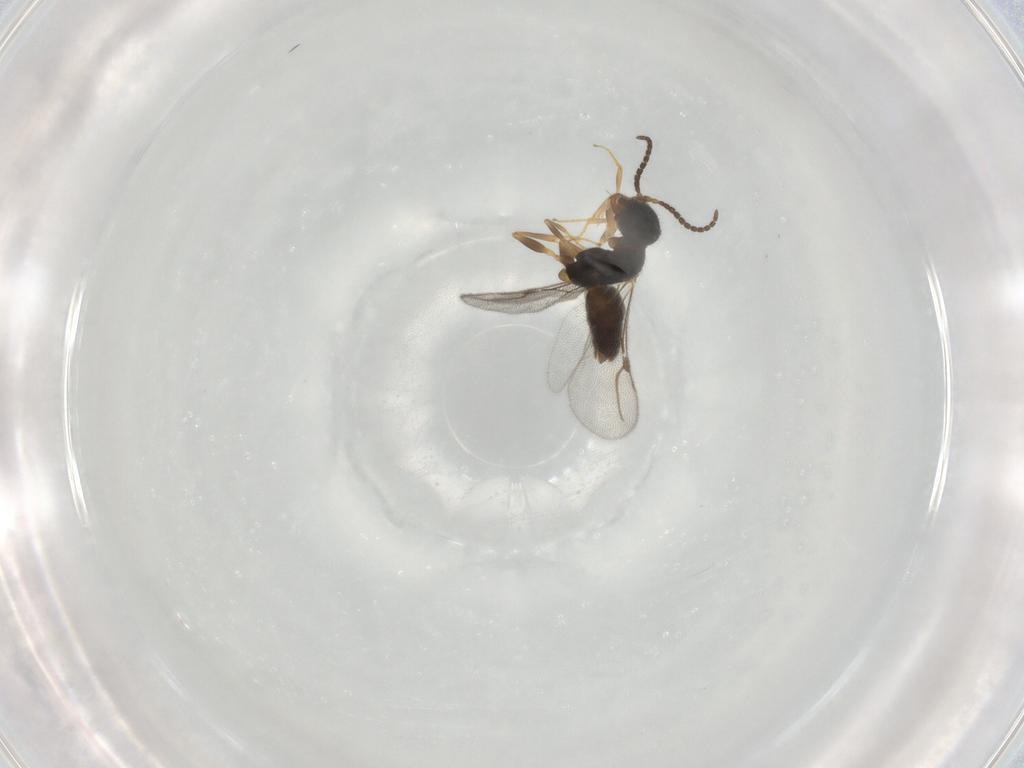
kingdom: Animalia
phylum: Arthropoda
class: Insecta
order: Hymenoptera
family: Bethylidae
